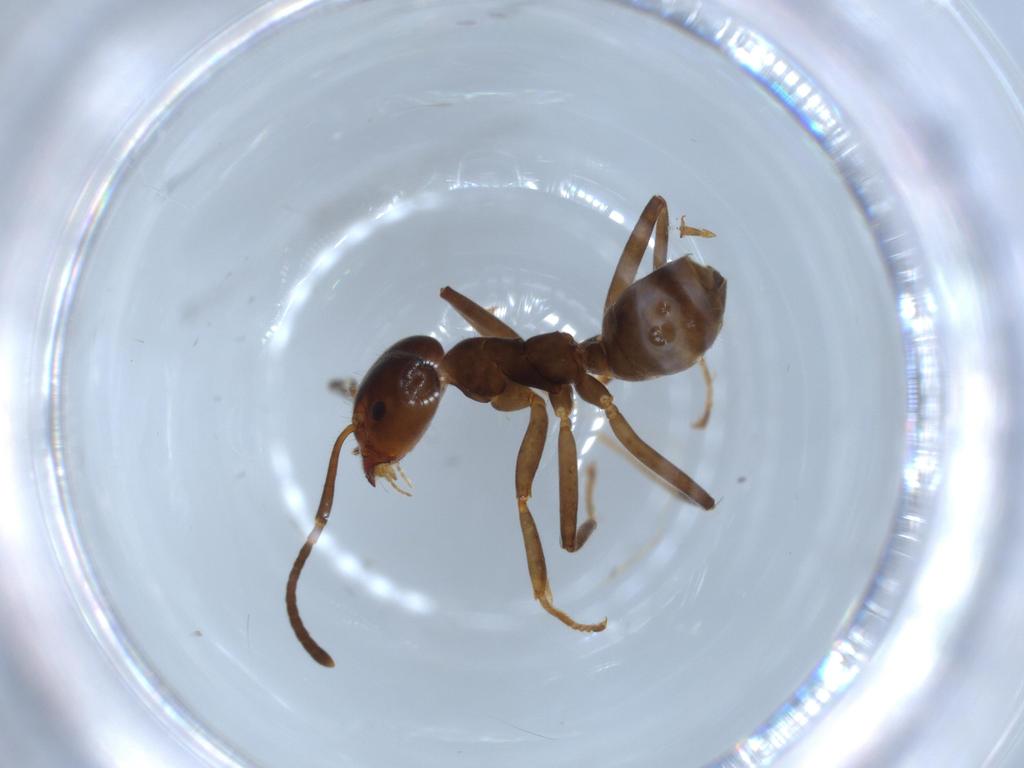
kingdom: Animalia
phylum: Arthropoda
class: Insecta
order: Hymenoptera
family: Formicidae
